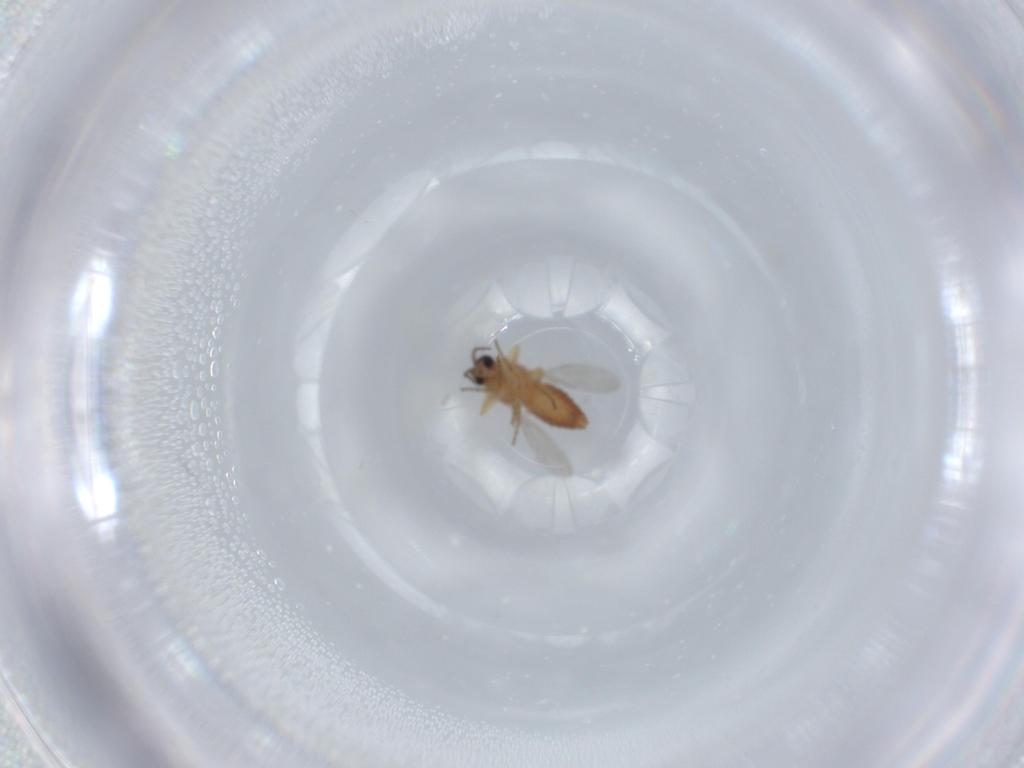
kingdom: Animalia
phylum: Arthropoda
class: Insecta
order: Diptera
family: Ceratopogonidae
